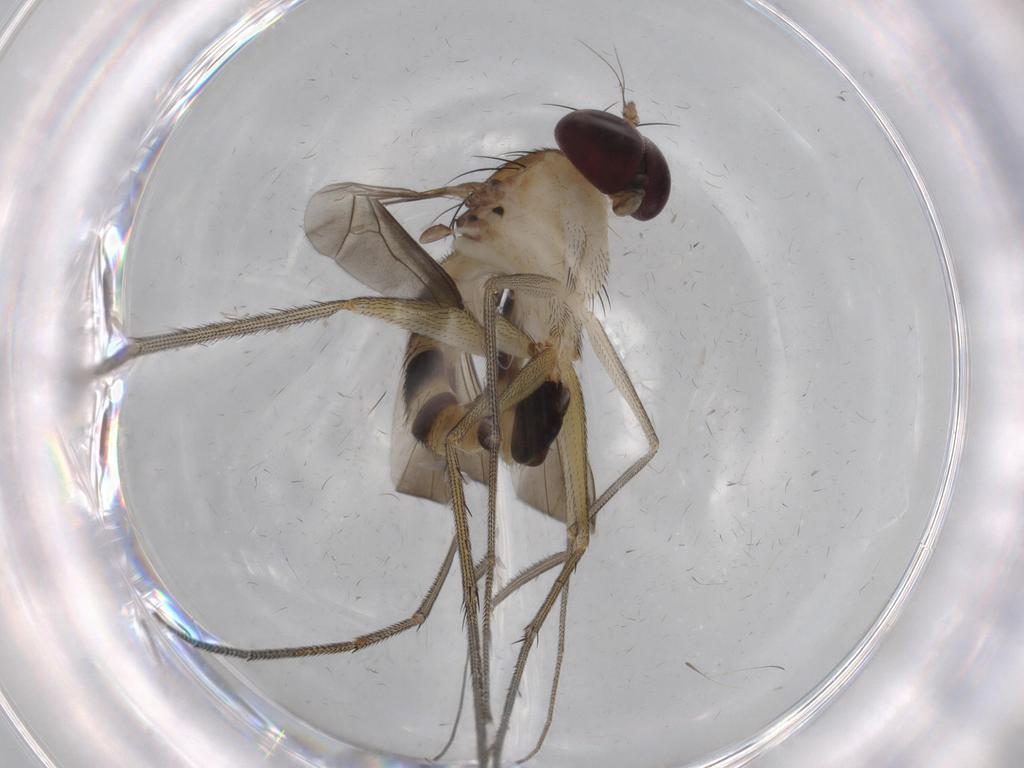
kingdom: Animalia
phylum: Arthropoda
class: Insecta
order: Diptera
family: Dolichopodidae
